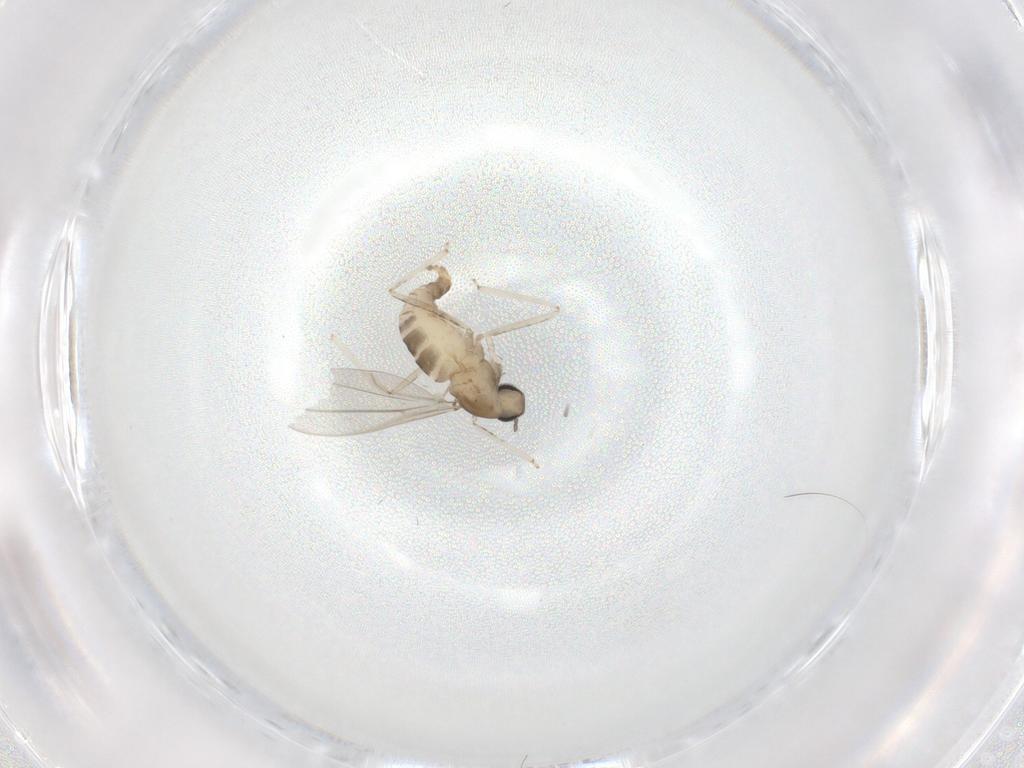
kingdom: Animalia
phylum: Arthropoda
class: Insecta
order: Diptera
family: Cecidomyiidae
